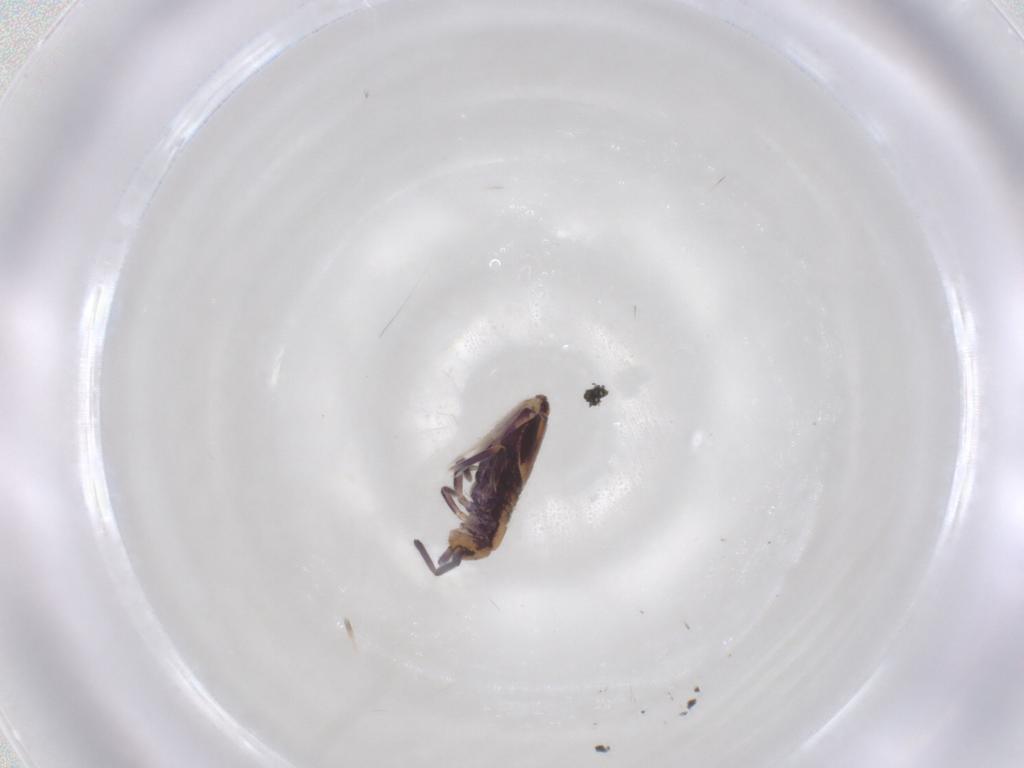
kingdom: Animalia
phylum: Arthropoda
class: Collembola
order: Entomobryomorpha
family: Entomobryidae
